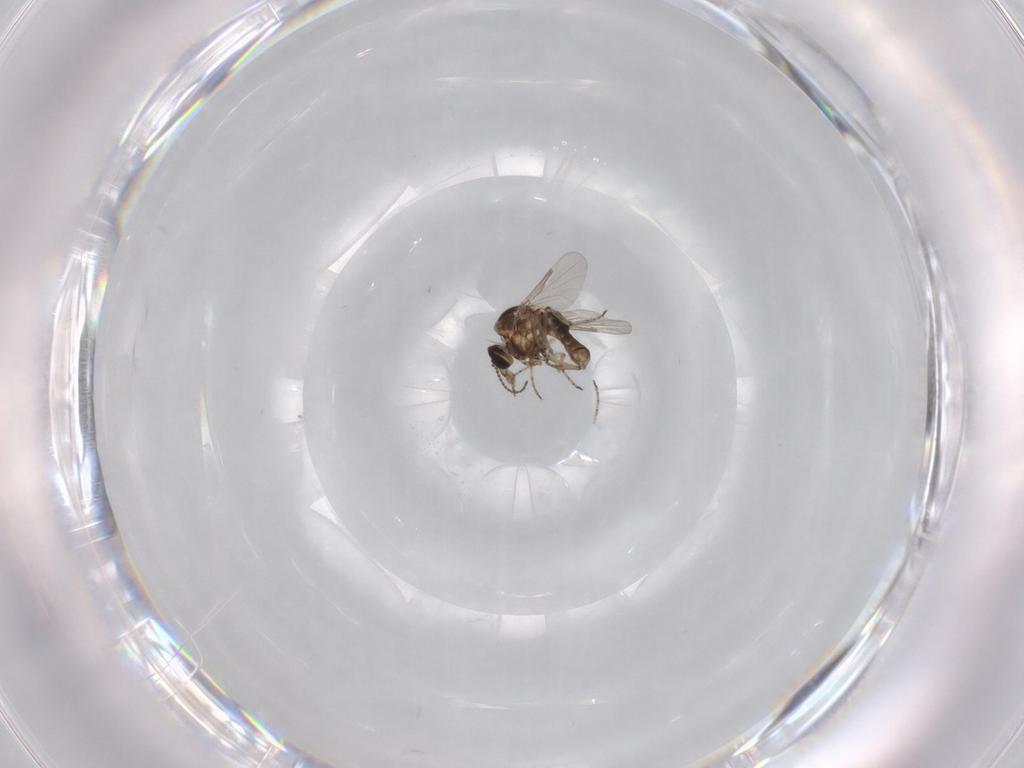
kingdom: Animalia
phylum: Arthropoda
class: Insecta
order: Diptera
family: Ceratopogonidae
